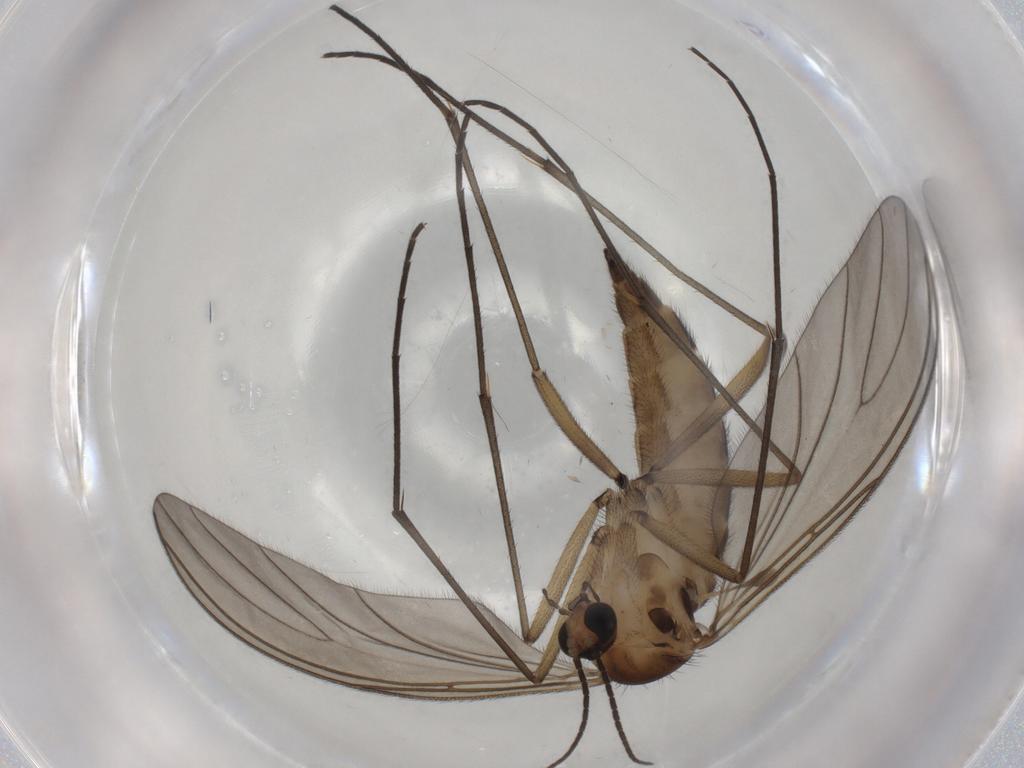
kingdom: Animalia
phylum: Arthropoda
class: Insecta
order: Diptera
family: Sciaridae
